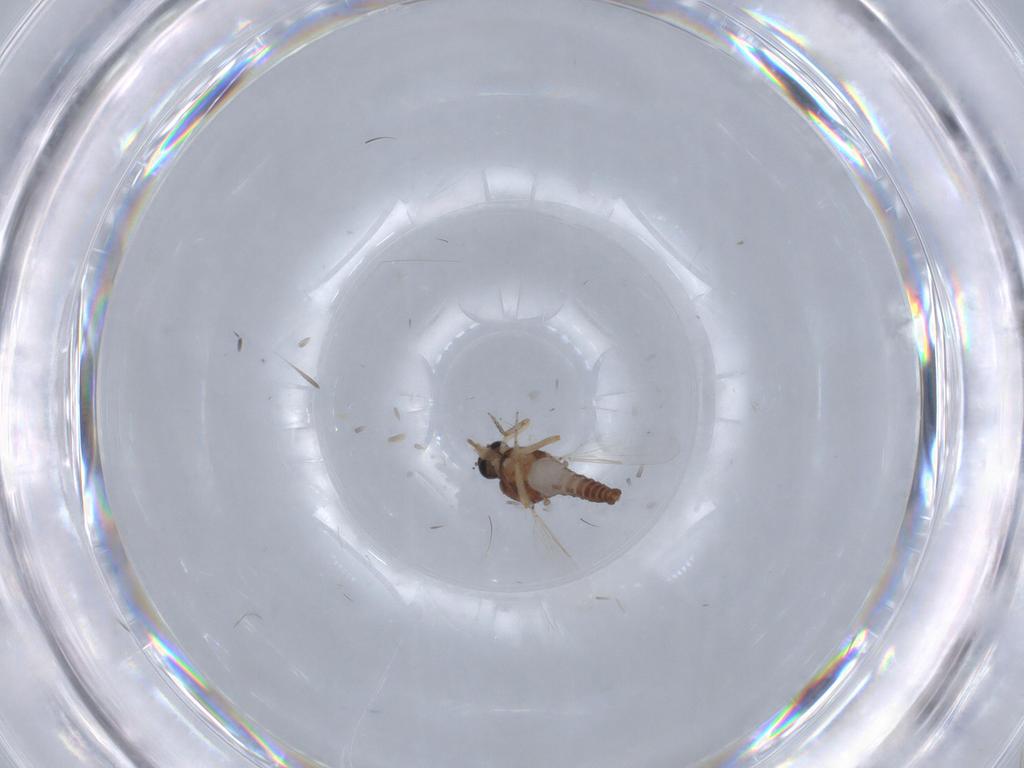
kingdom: Animalia
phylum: Arthropoda
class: Insecta
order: Diptera
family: Ceratopogonidae
